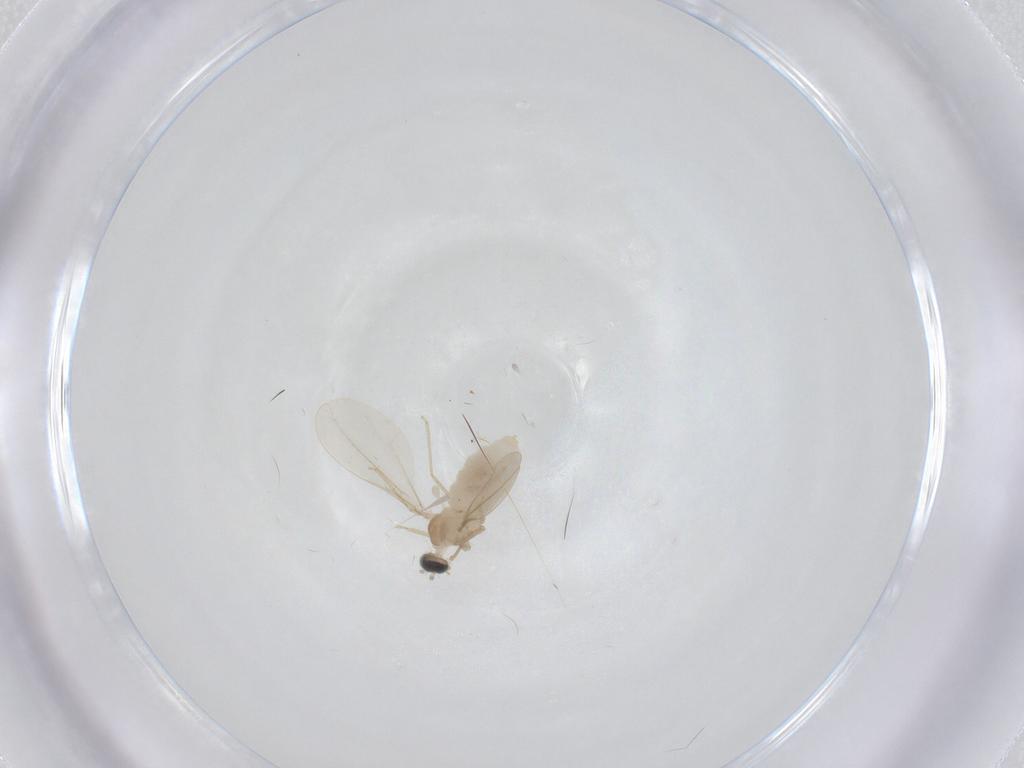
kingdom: Animalia
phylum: Arthropoda
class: Insecta
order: Diptera
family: Cecidomyiidae
